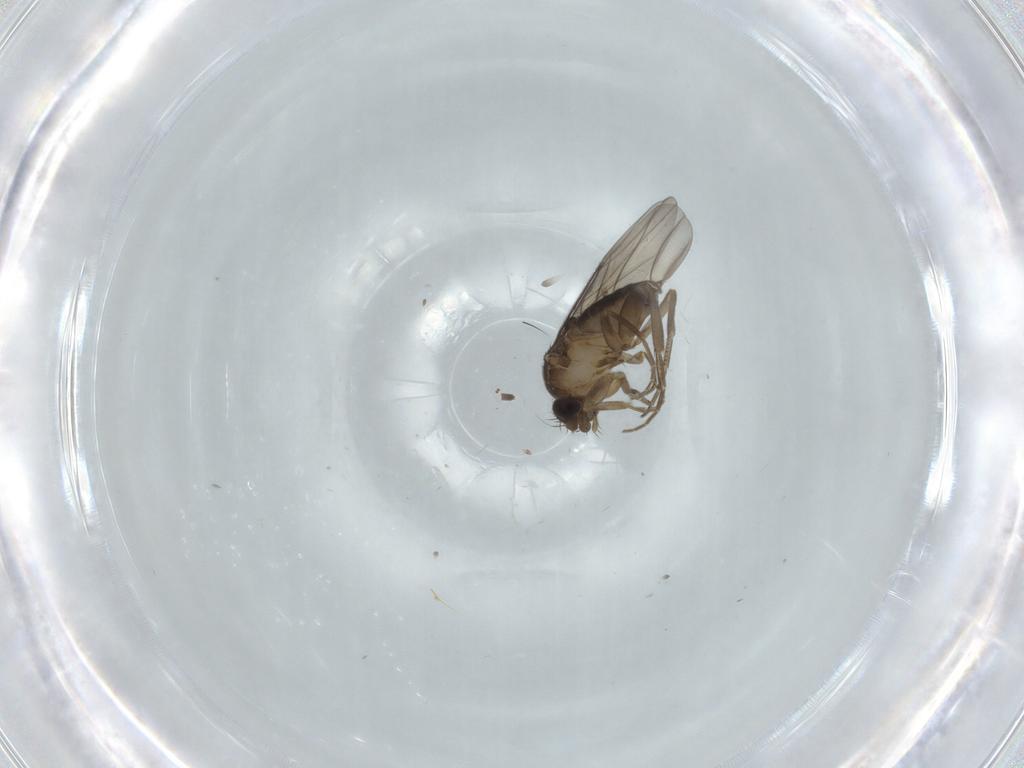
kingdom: Animalia
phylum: Arthropoda
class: Insecta
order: Diptera
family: Phoridae
